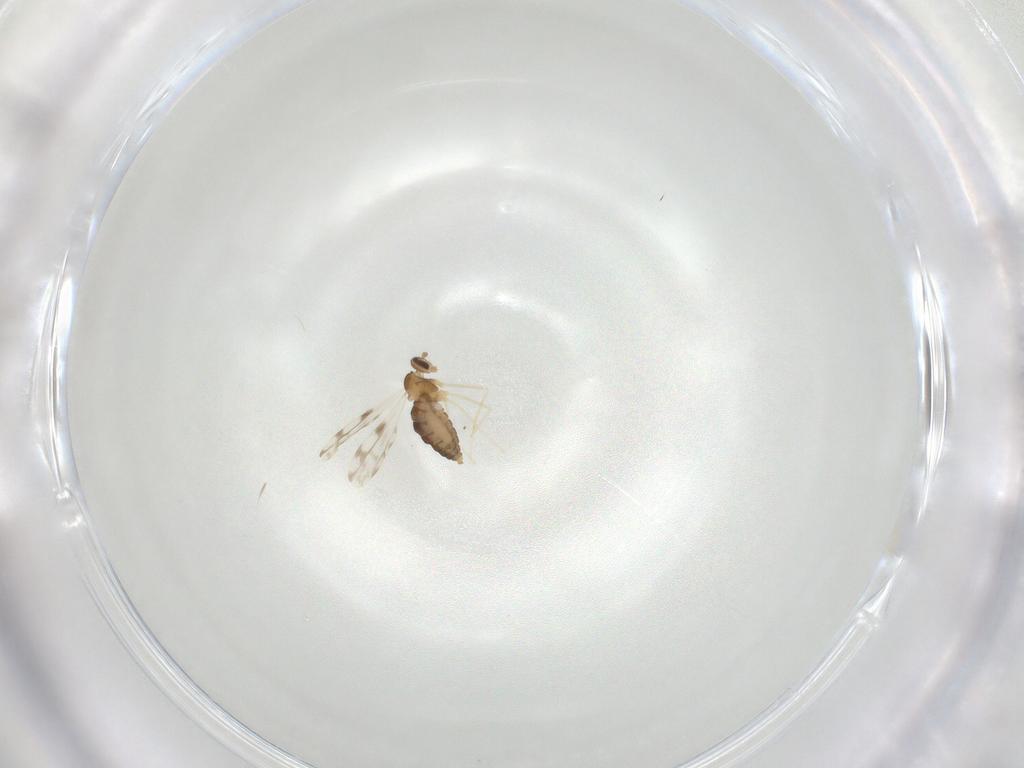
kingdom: Animalia
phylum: Arthropoda
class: Insecta
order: Diptera
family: Cecidomyiidae
